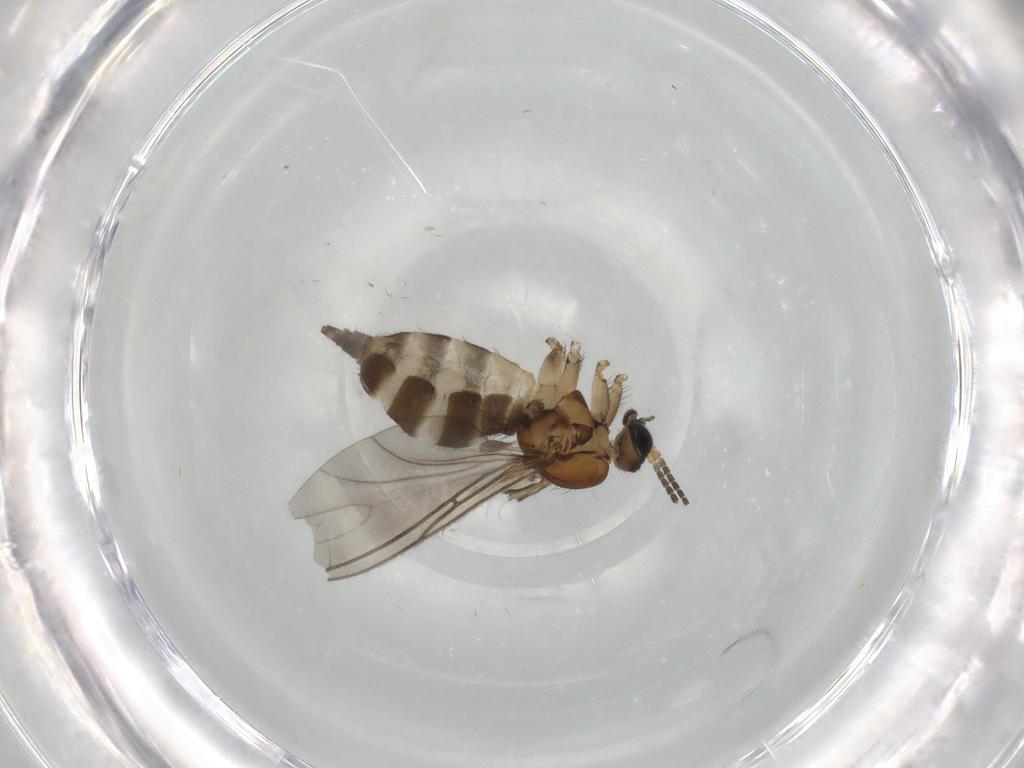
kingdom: Animalia
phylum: Arthropoda
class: Insecta
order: Diptera
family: Sciaridae
